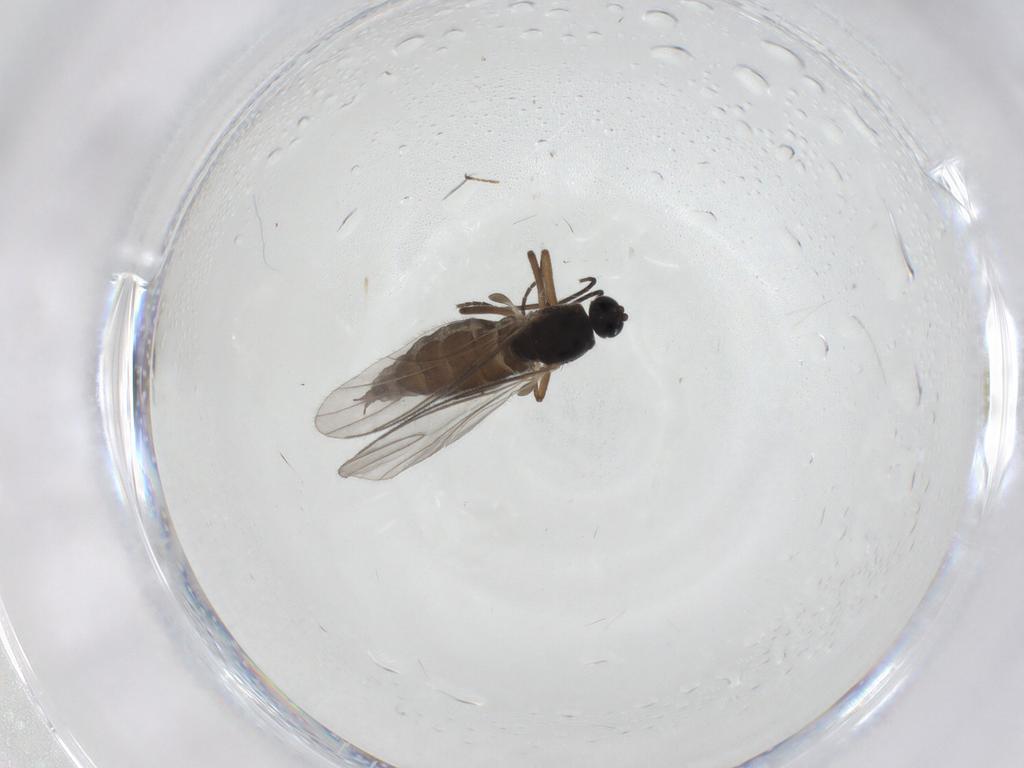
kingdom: Animalia
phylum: Arthropoda
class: Insecta
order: Diptera
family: Sciaridae
